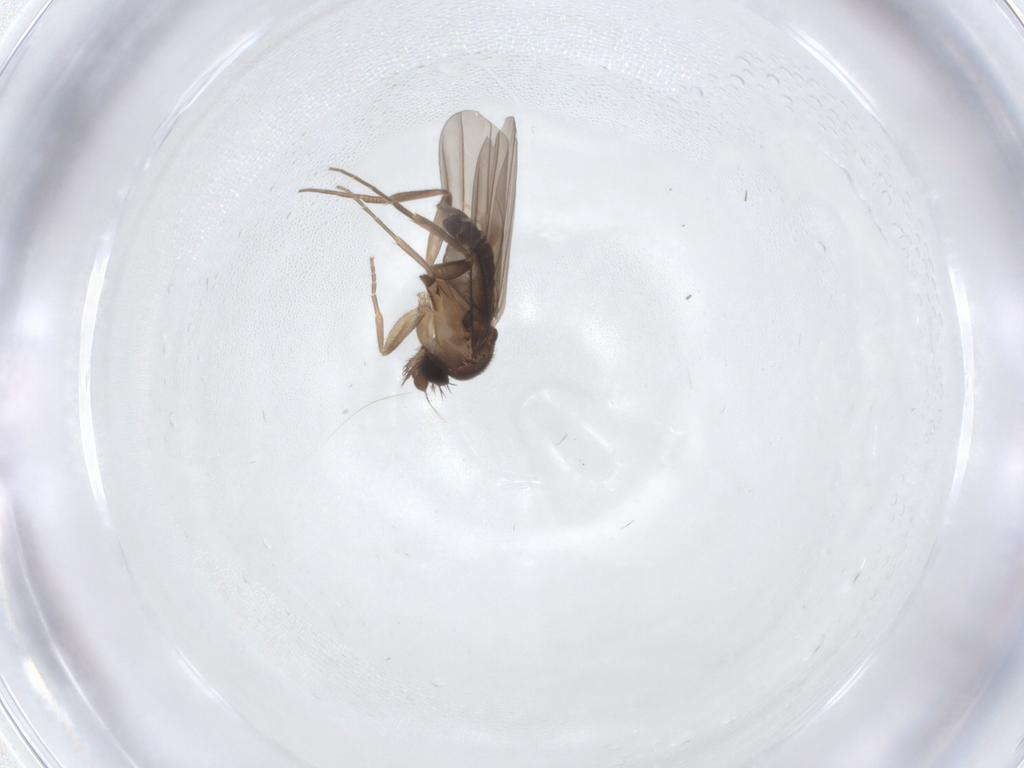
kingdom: Animalia
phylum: Arthropoda
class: Insecta
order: Diptera
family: Phoridae
